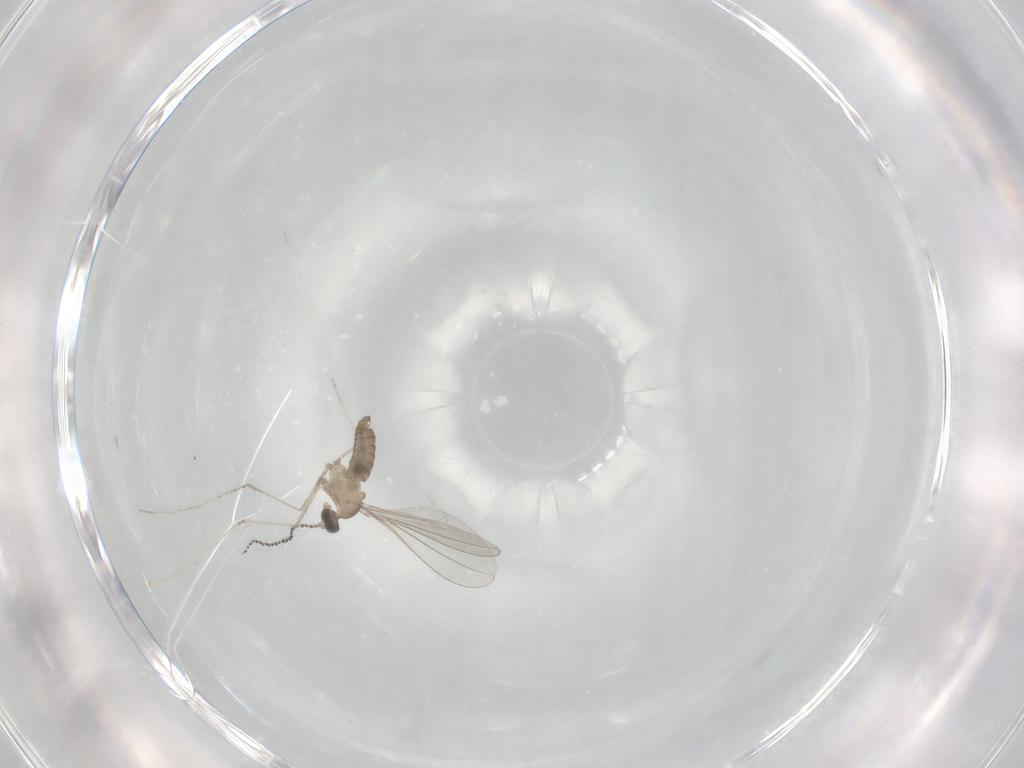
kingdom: Animalia
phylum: Arthropoda
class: Insecta
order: Diptera
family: Cecidomyiidae
